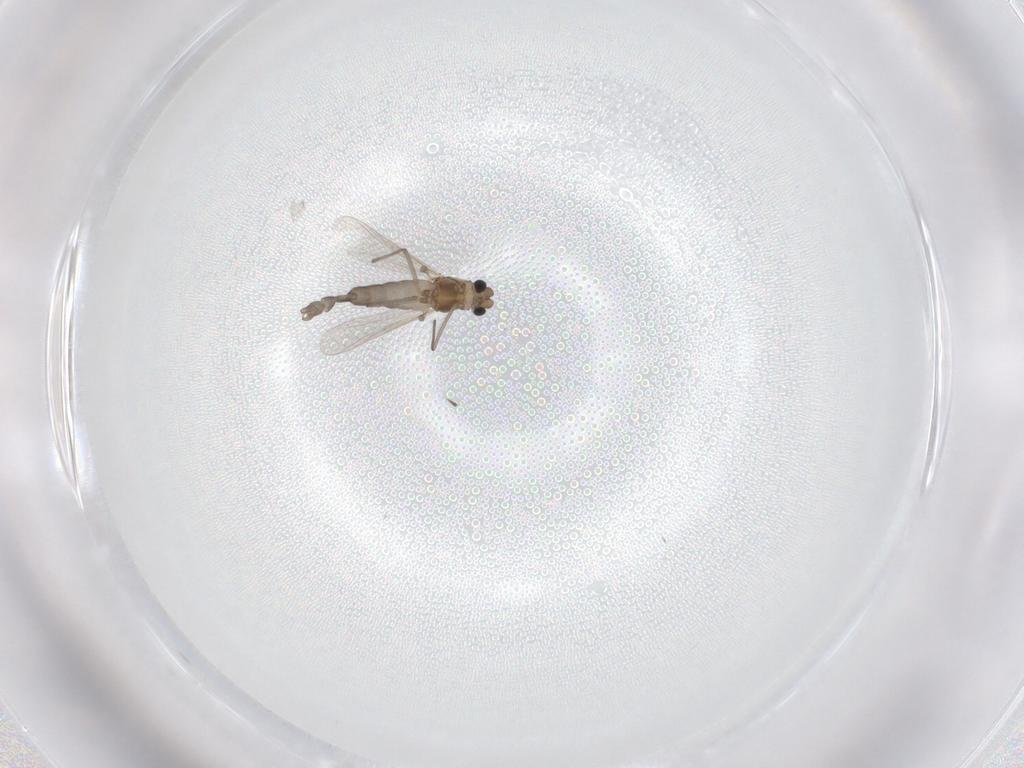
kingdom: Animalia
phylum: Arthropoda
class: Insecta
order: Diptera
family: Chironomidae
